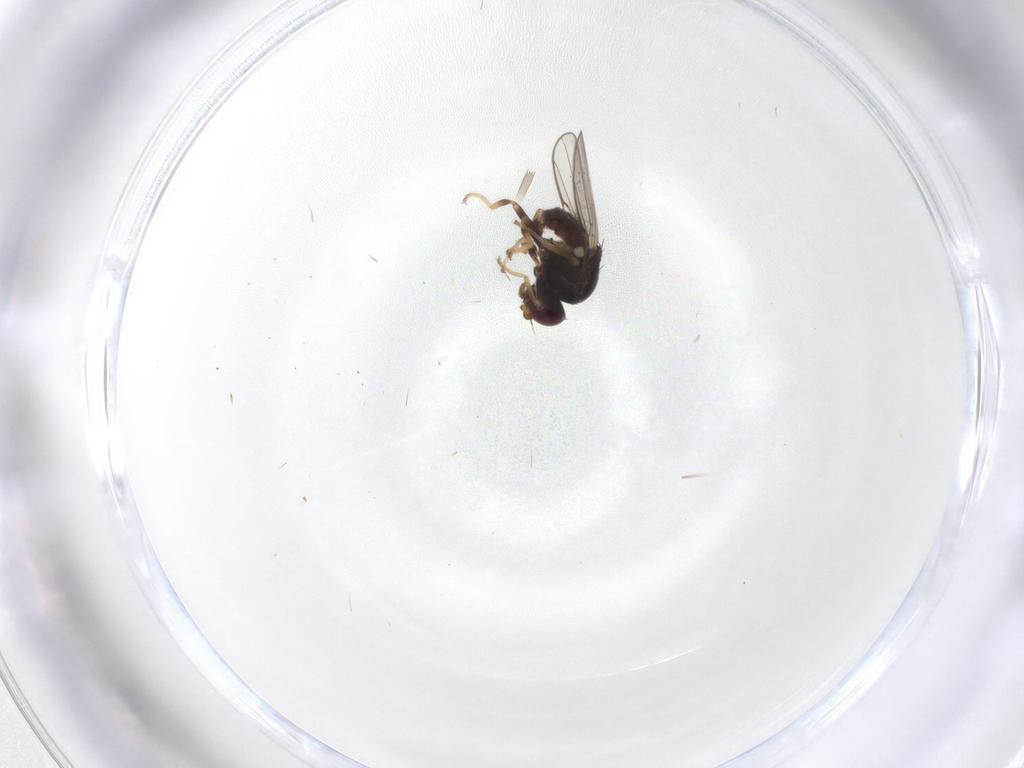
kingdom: Animalia
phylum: Arthropoda
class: Insecta
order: Diptera
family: Chloropidae
